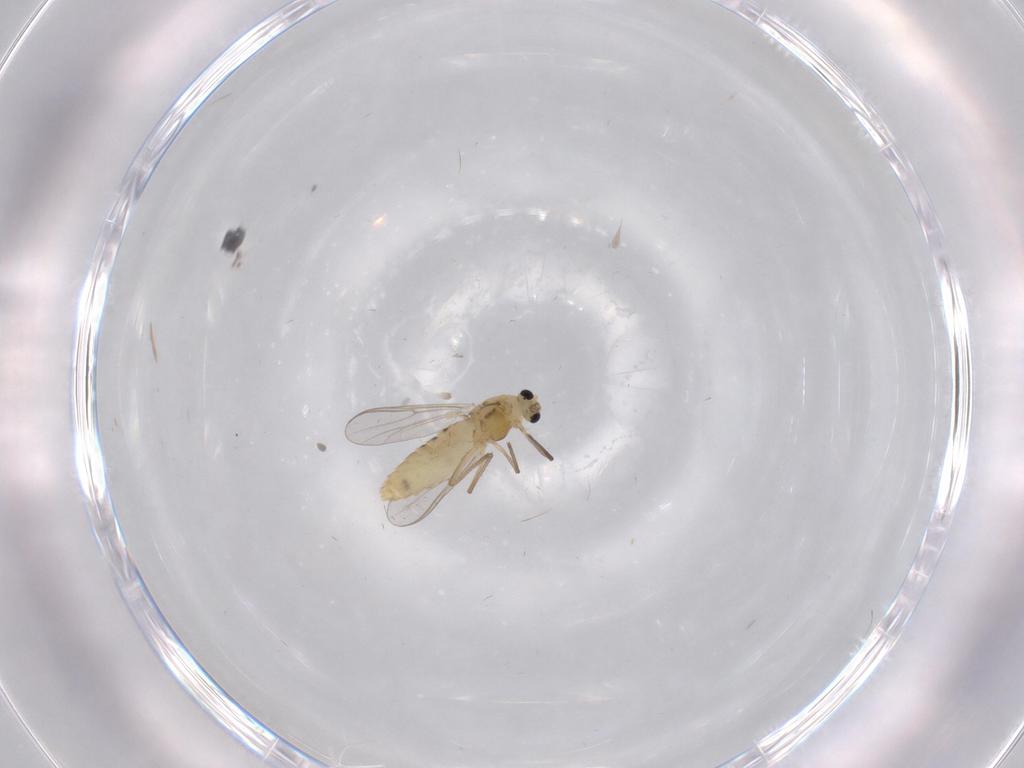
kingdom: Animalia
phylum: Arthropoda
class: Insecta
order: Diptera
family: Chironomidae
